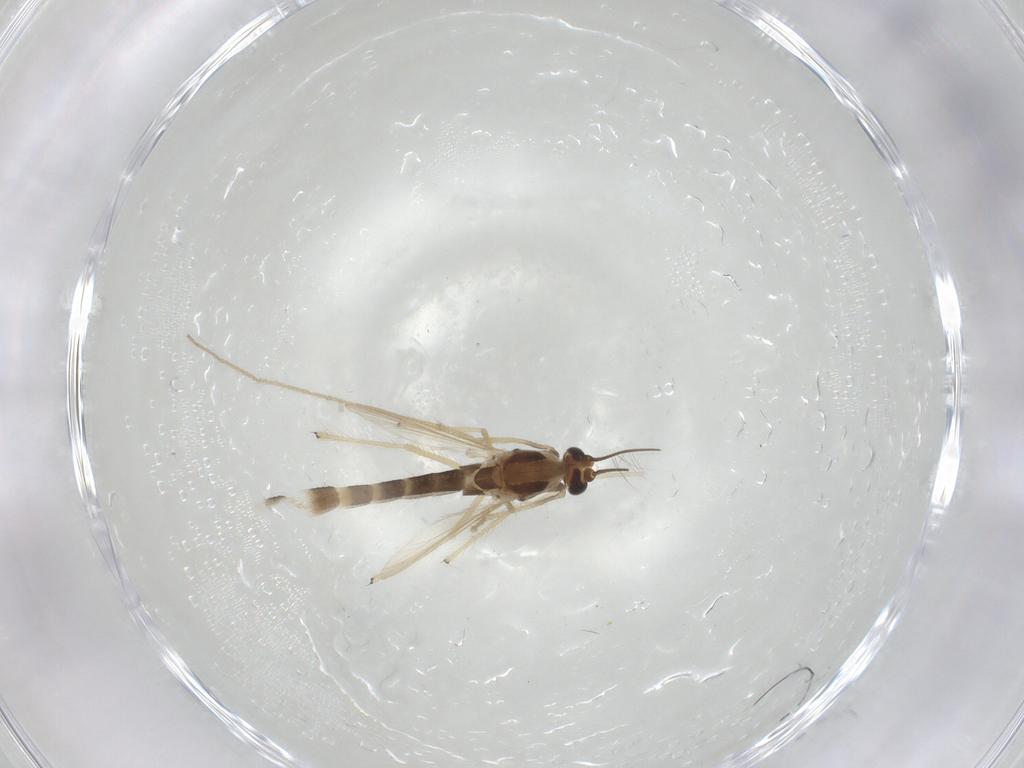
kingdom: Animalia
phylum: Arthropoda
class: Insecta
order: Diptera
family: Chironomidae
